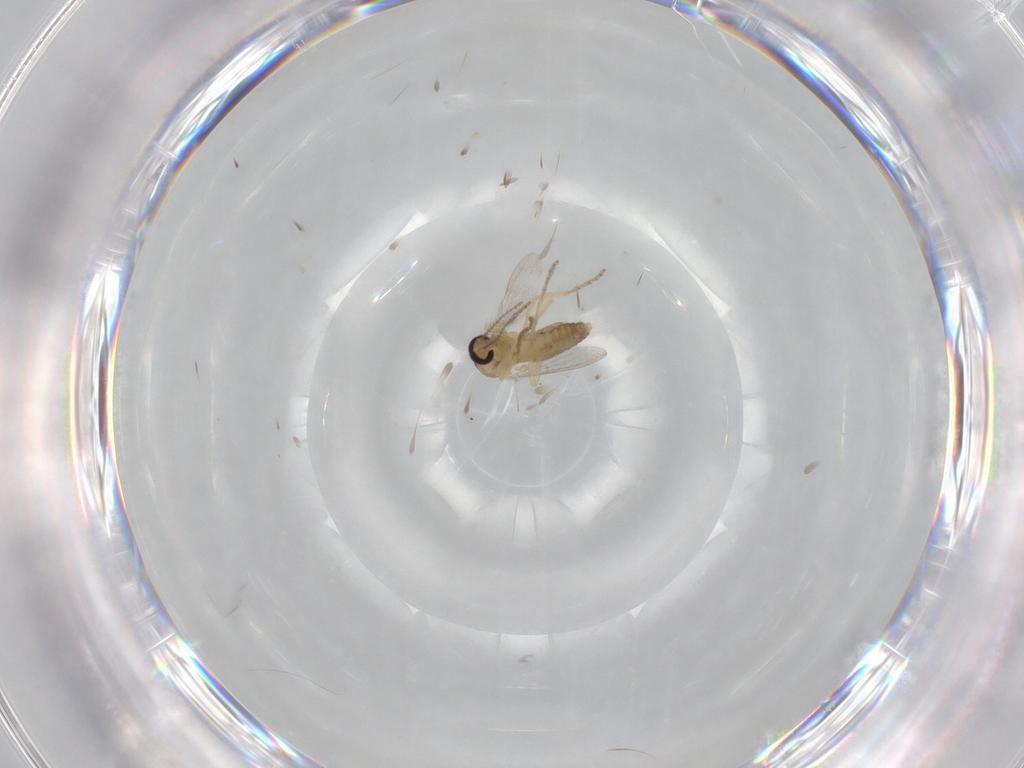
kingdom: Animalia
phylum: Arthropoda
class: Insecta
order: Diptera
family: Ceratopogonidae
